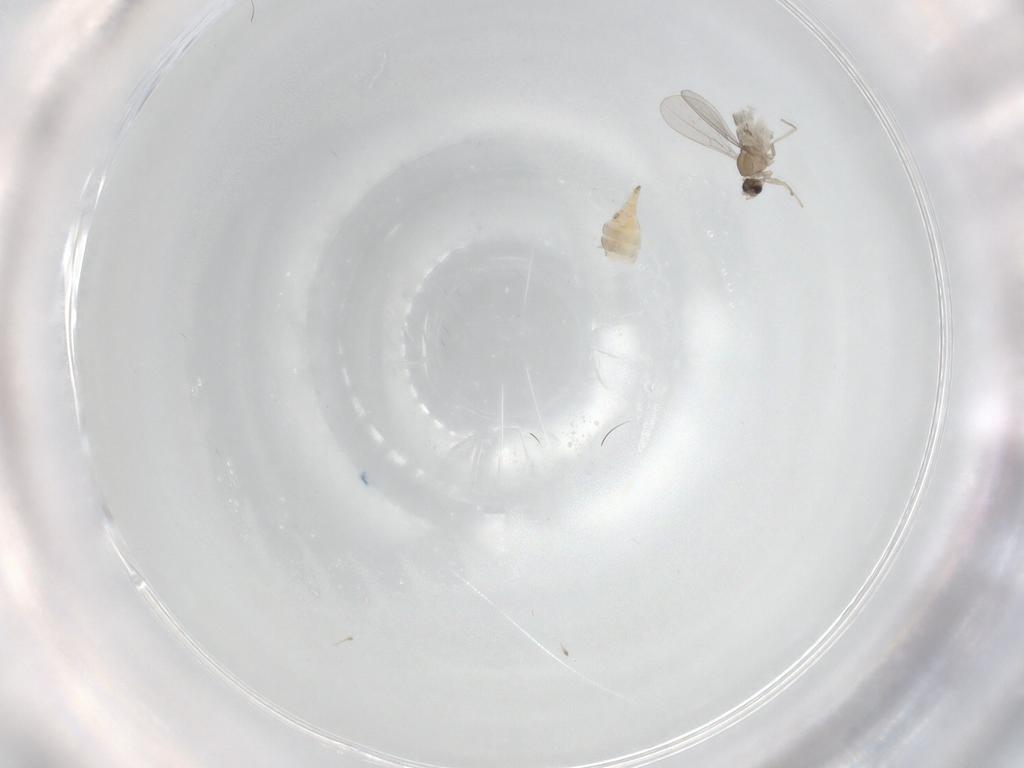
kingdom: Animalia
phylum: Arthropoda
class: Insecta
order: Diptera
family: Cecidomyiidae
